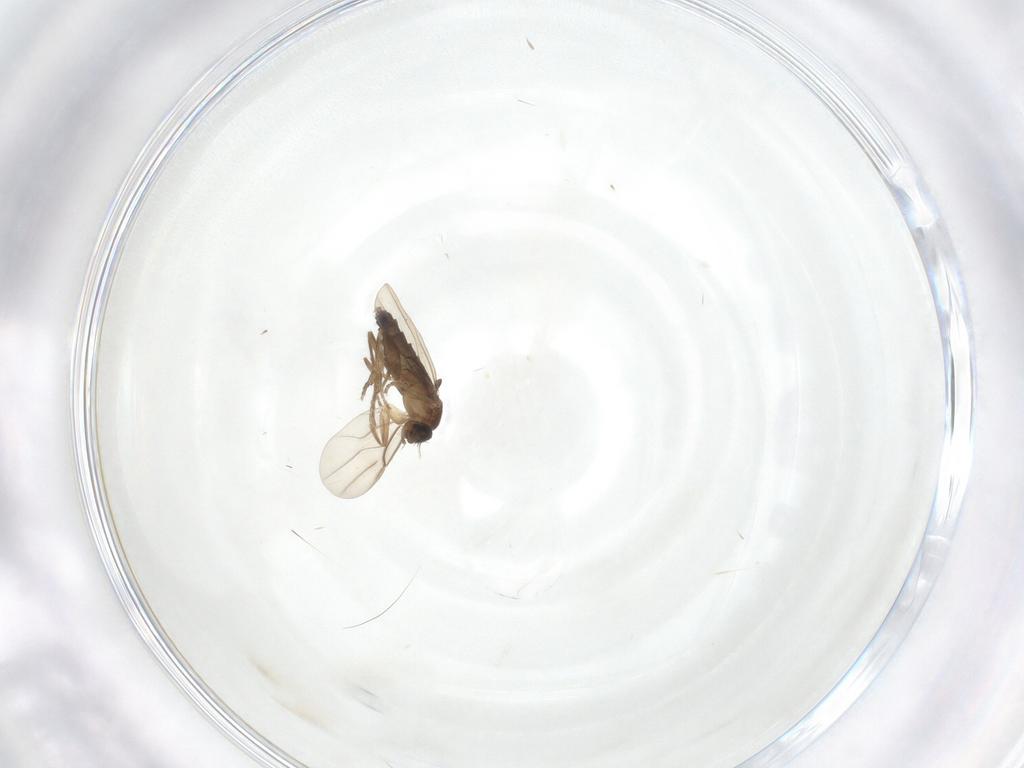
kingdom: Animalia
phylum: Arthropoda
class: Insecta
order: Diptera
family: Phoridae
